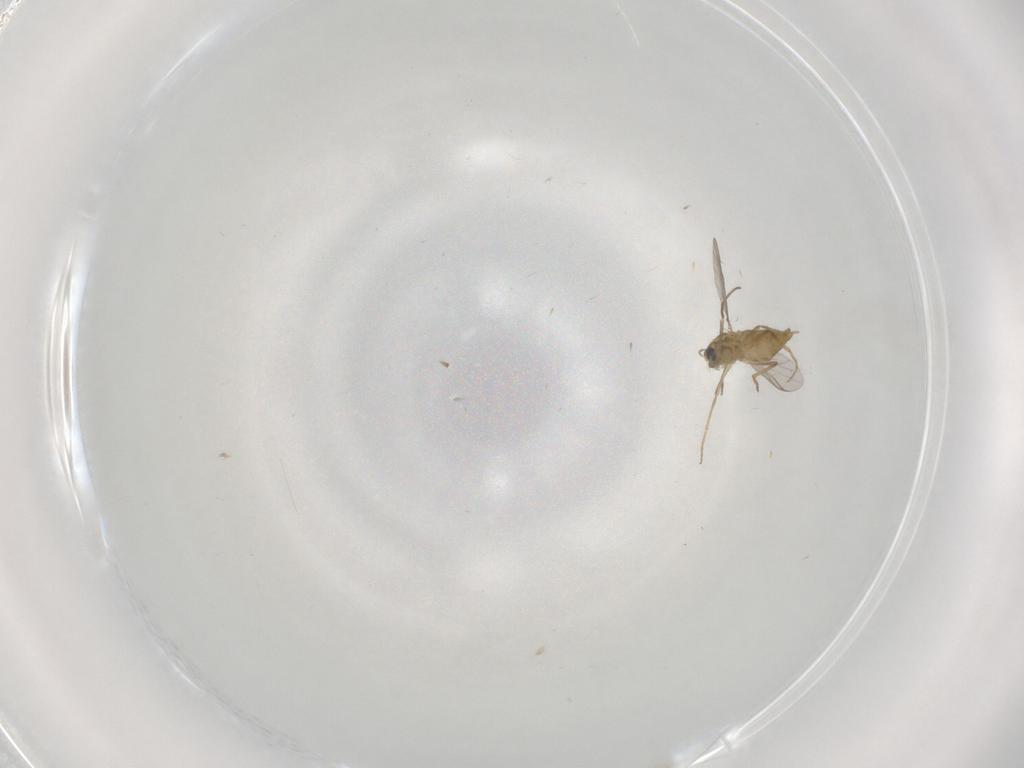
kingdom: Animalia
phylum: Arthropoda
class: Insecta
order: Diptera
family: Chironomidae
